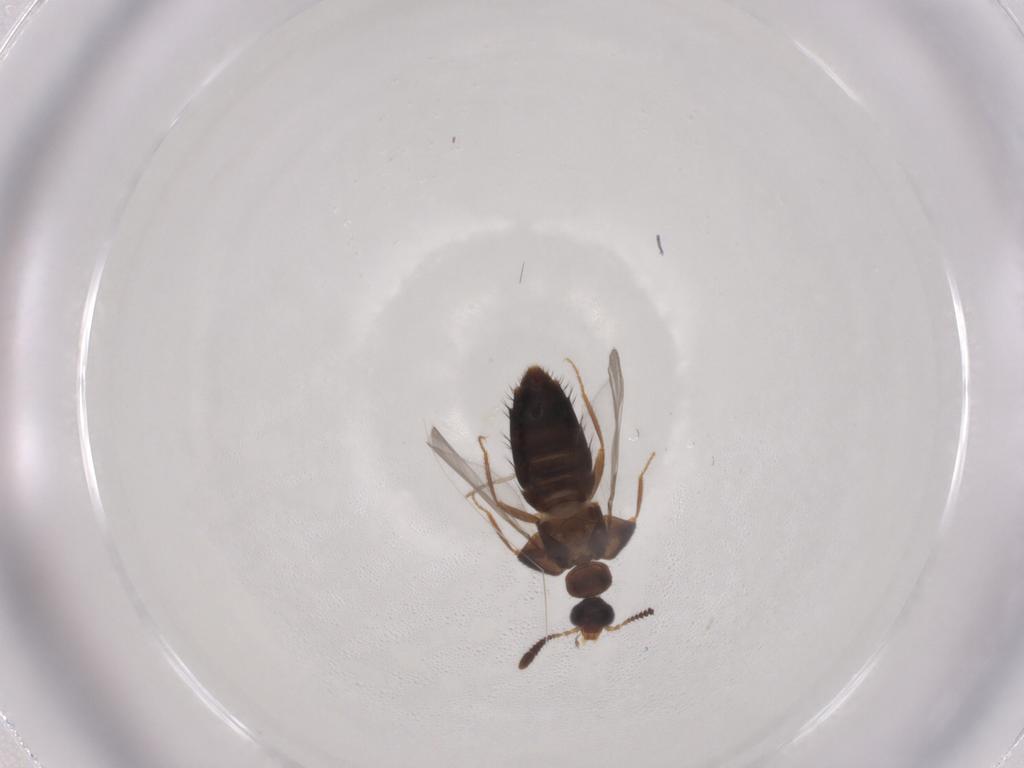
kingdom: Animalia
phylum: Arthropoda
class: Insecta
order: Coleoptera
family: Staphylinidae
